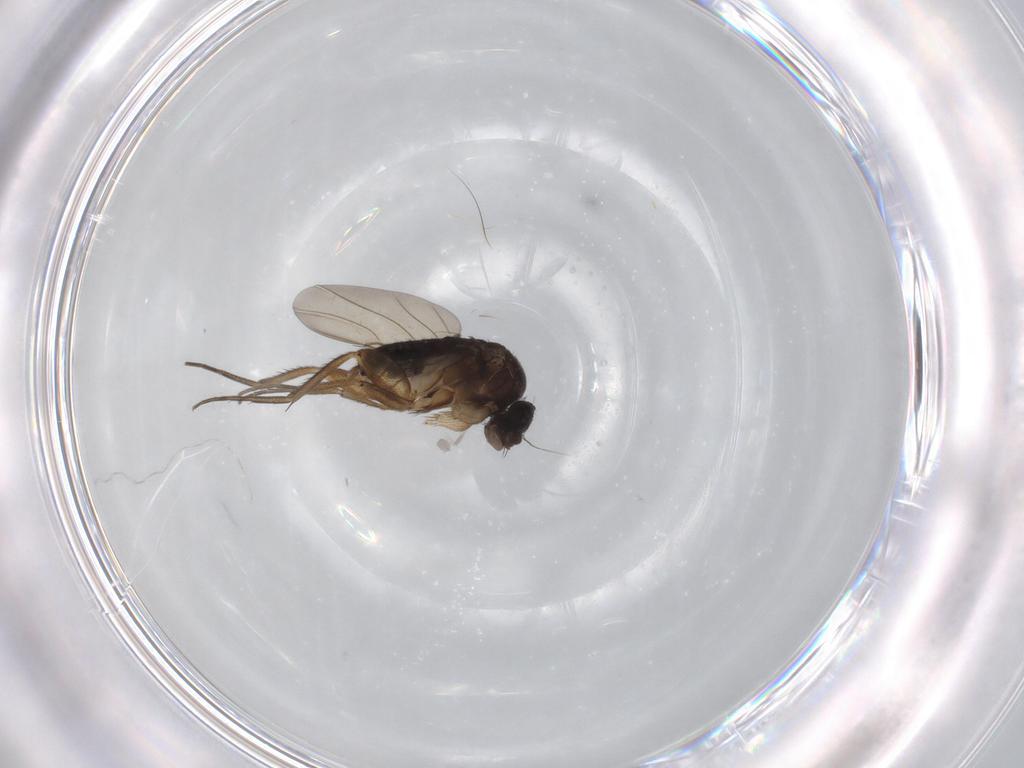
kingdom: Animalia
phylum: Arthropoda
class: Insecta
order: Diptera
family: Phoridae
